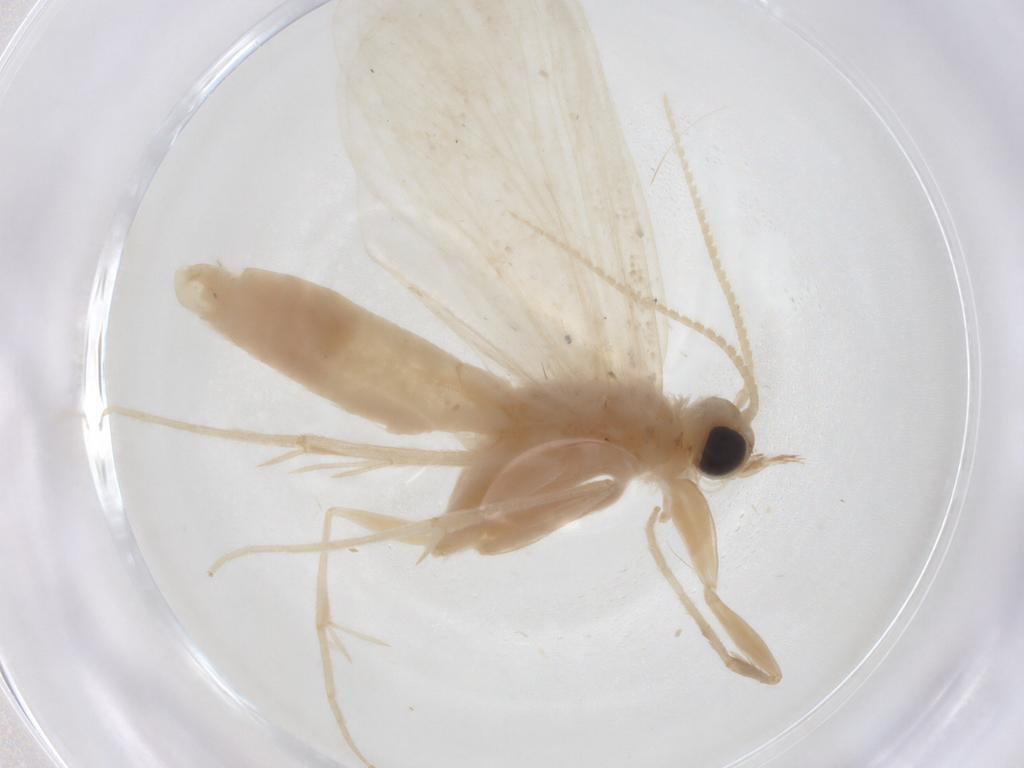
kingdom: Animalia
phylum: Arthropoda
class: Insecta
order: Lepidoptera
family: Crambidae
